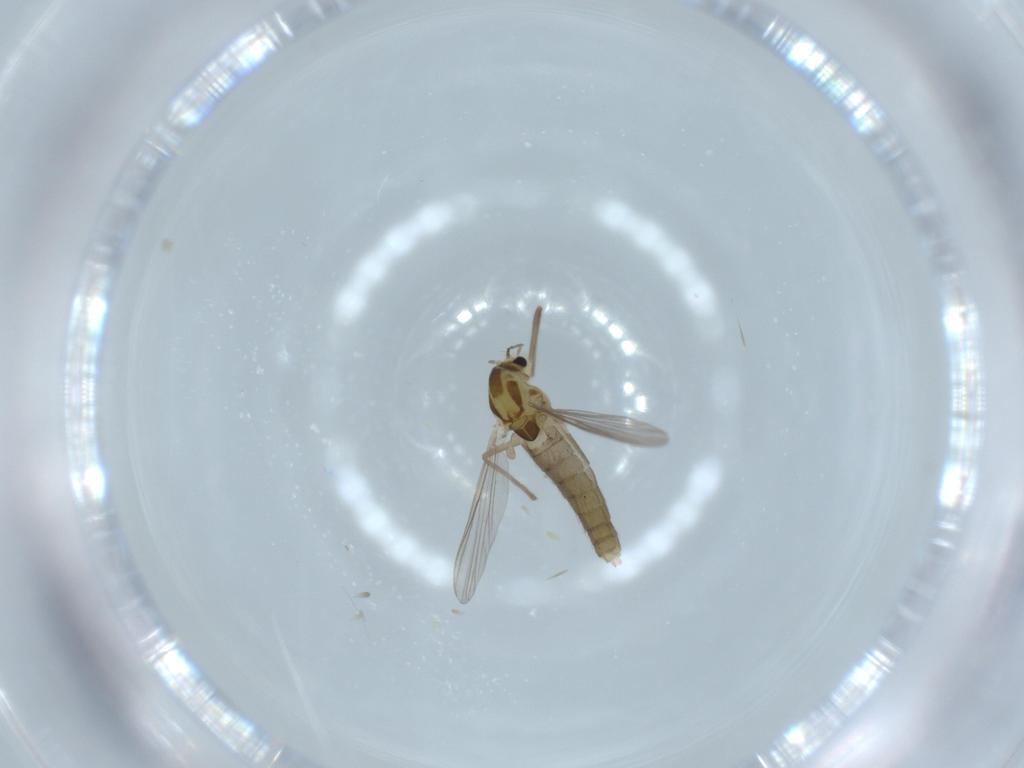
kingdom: Animalia
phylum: Arthropoda
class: Insecta
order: Diptera
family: Chironomidae
